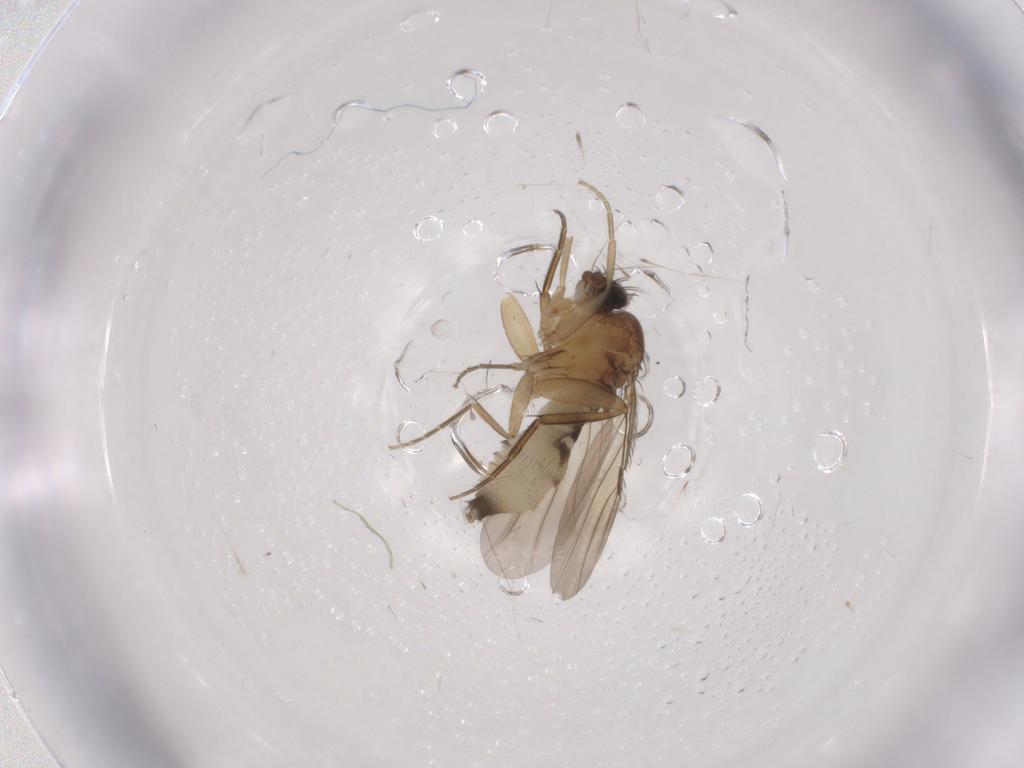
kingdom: Animalia
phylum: Arthropoda
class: Insecta
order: Diptera
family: Phoridae
